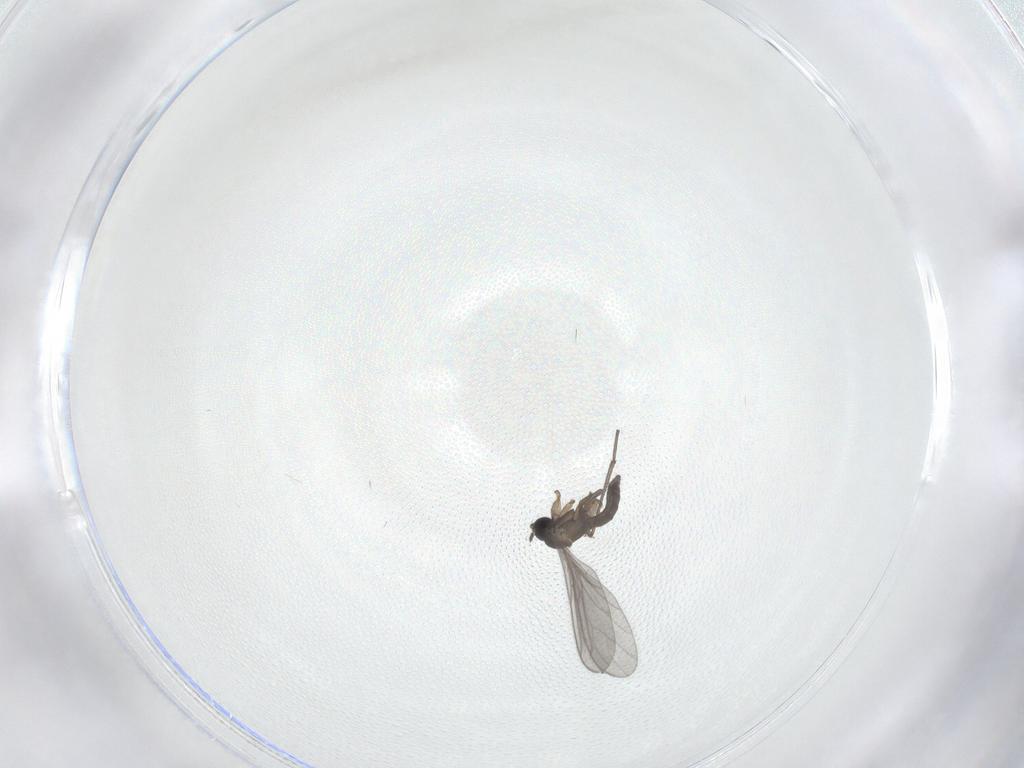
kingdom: Animalia
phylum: Arthropoda
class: Insecta
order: Diptera
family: Sciaridae
